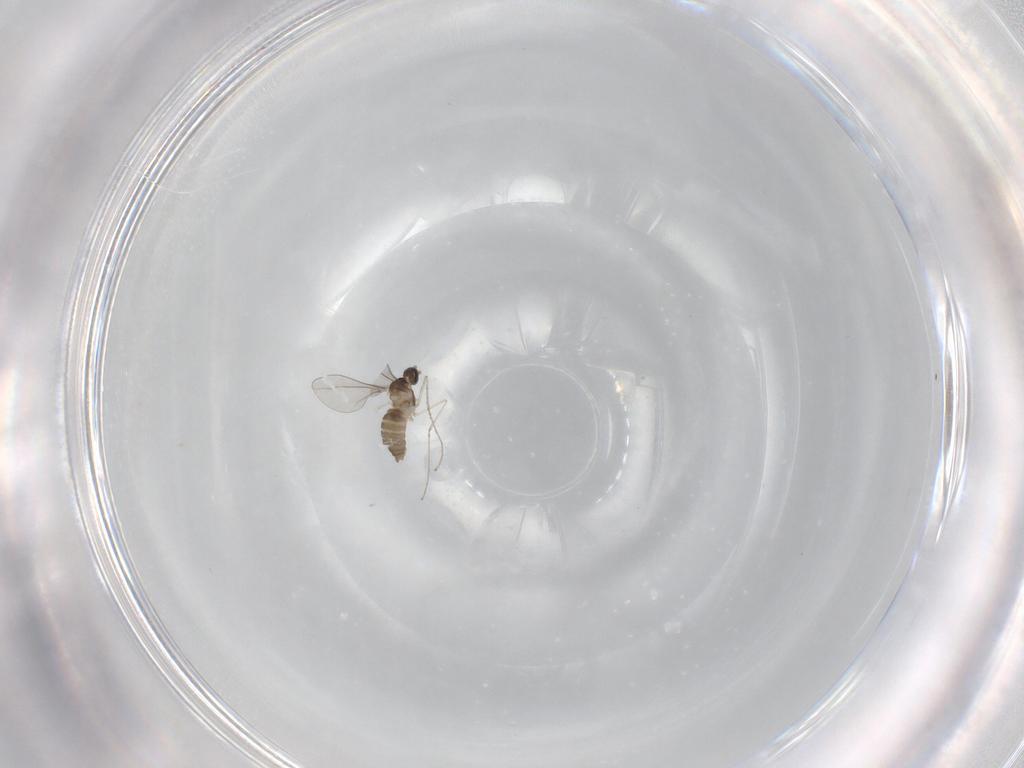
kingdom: Animalia
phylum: Arthropoda
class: Insecta
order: Diptera
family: Cecidomyiidae
